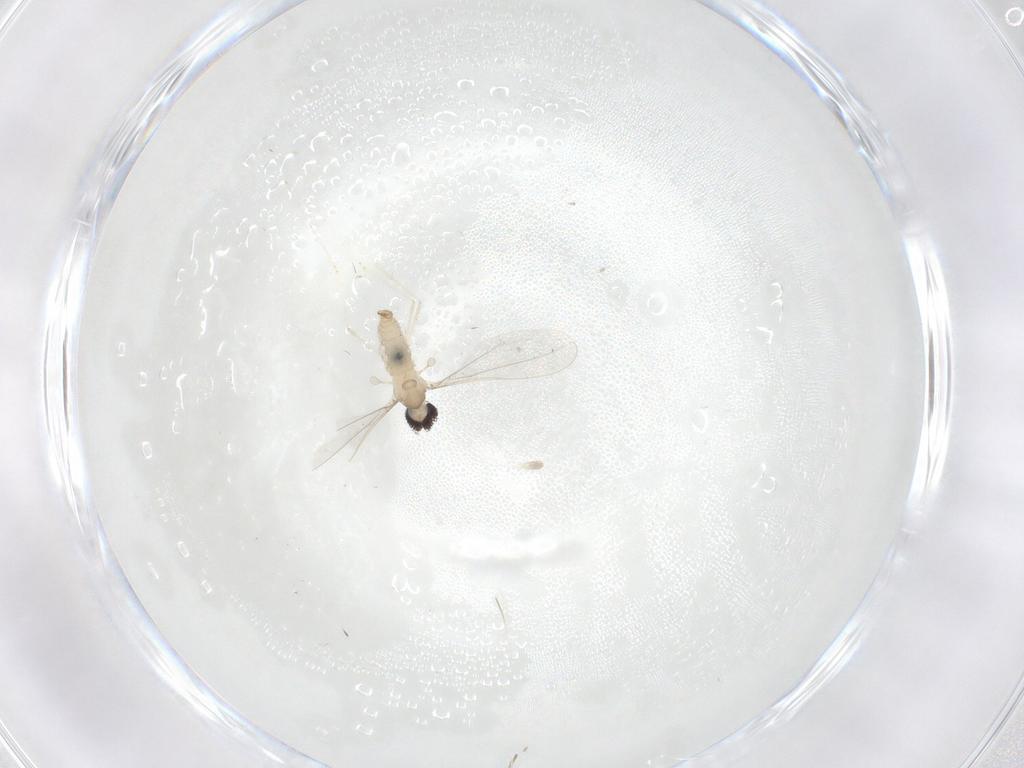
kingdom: Animalia
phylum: Arthropoda
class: Insecta
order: Diptera
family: Cecidomyiidae
